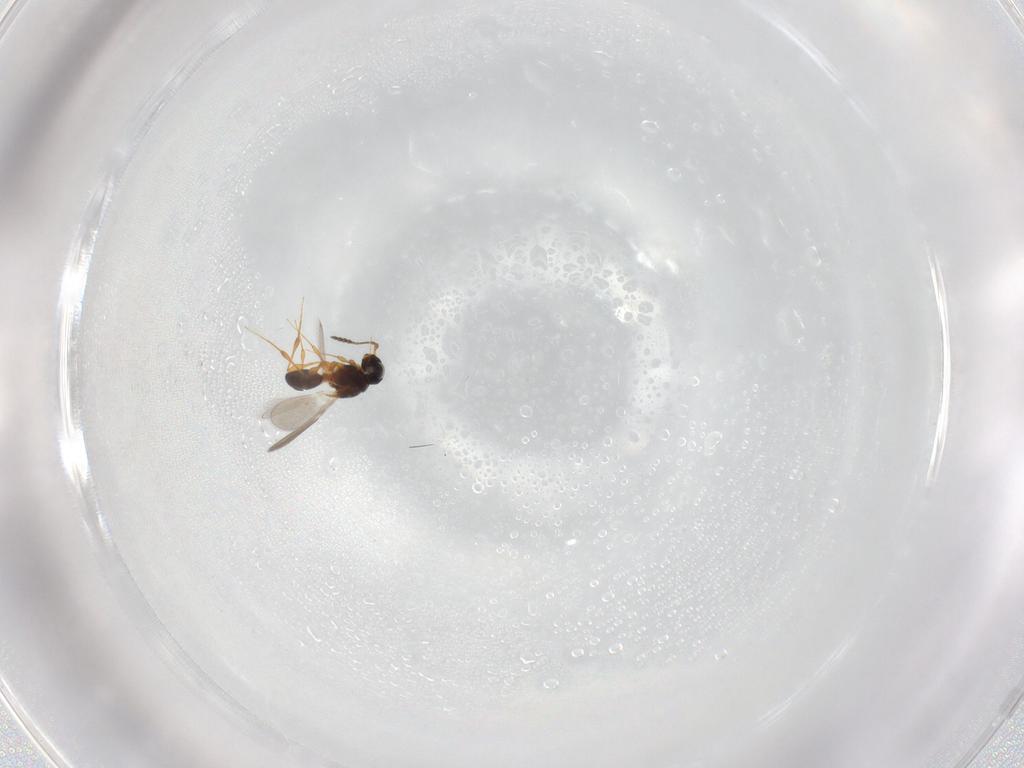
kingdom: Animalia
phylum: Arthropoda
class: Insecta
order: Hymenoptera
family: Platygastridae
